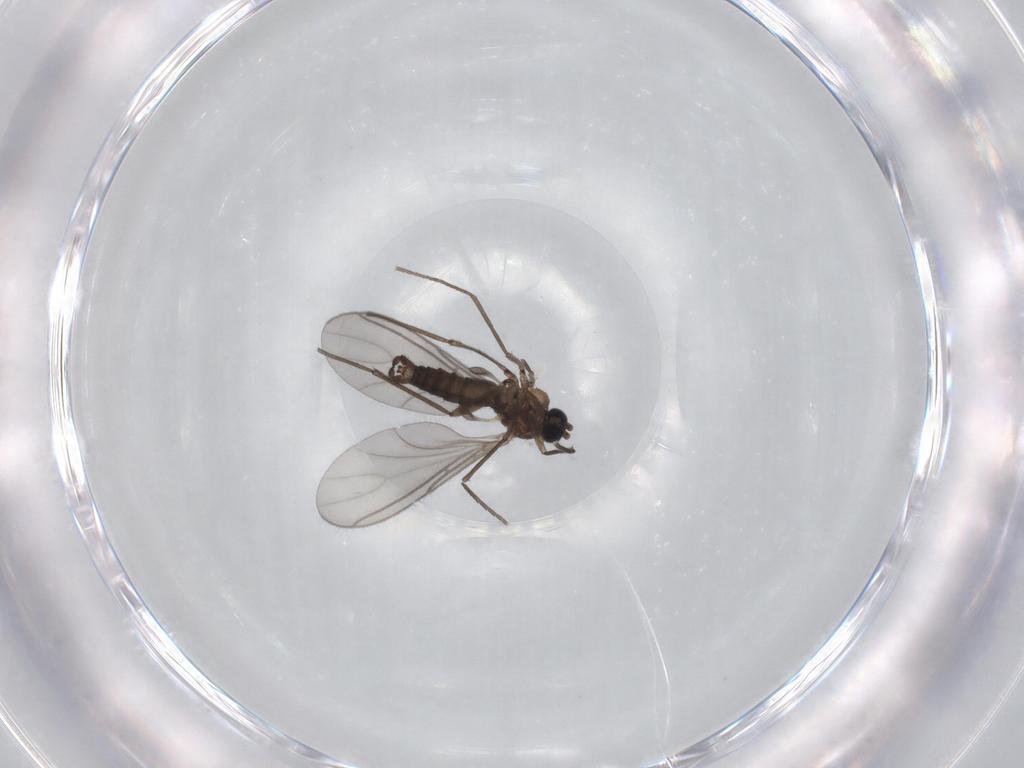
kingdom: Animalia
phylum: Arthropoda
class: Insecta
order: Diptera
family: Sciaridae
